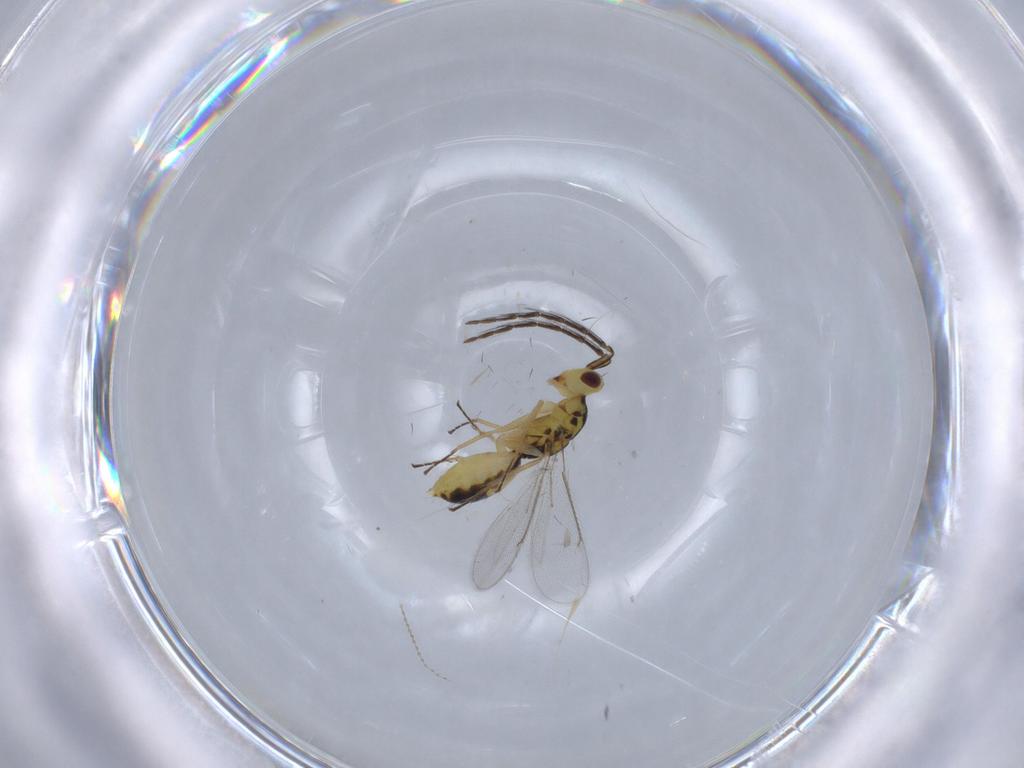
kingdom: Animalia
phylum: Arthropoda
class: Insecta
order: Hymenoptera
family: Eulophidae
